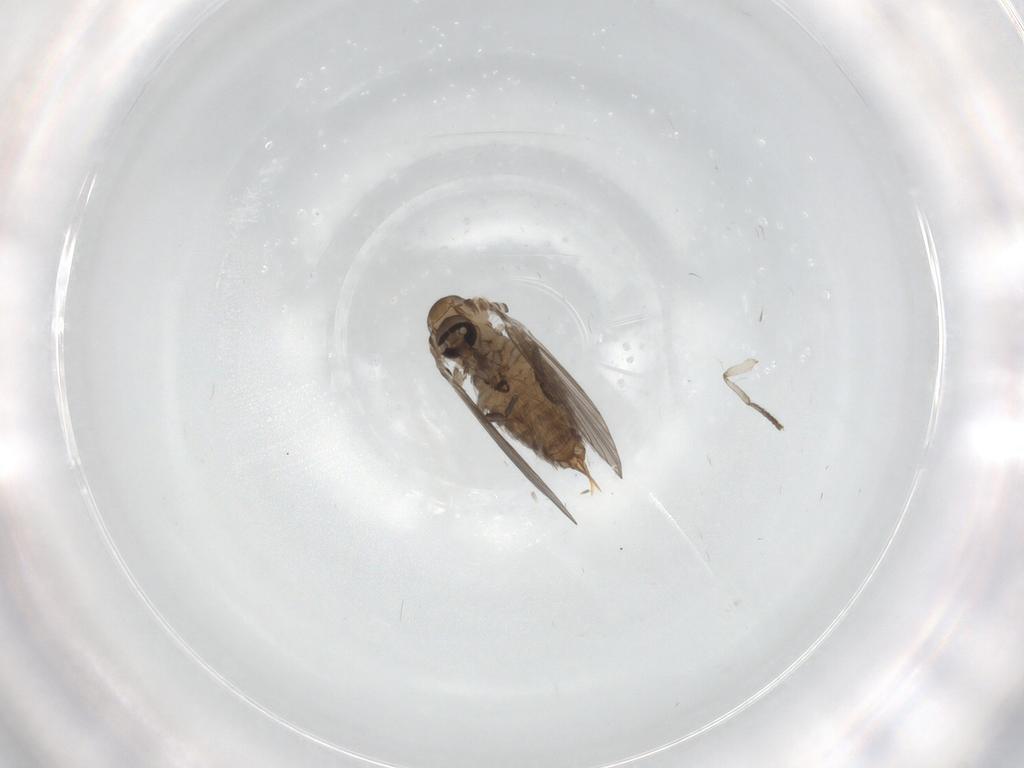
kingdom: Animalia
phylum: Arthropoda
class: Insecta
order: Diptera
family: Psychodidae
